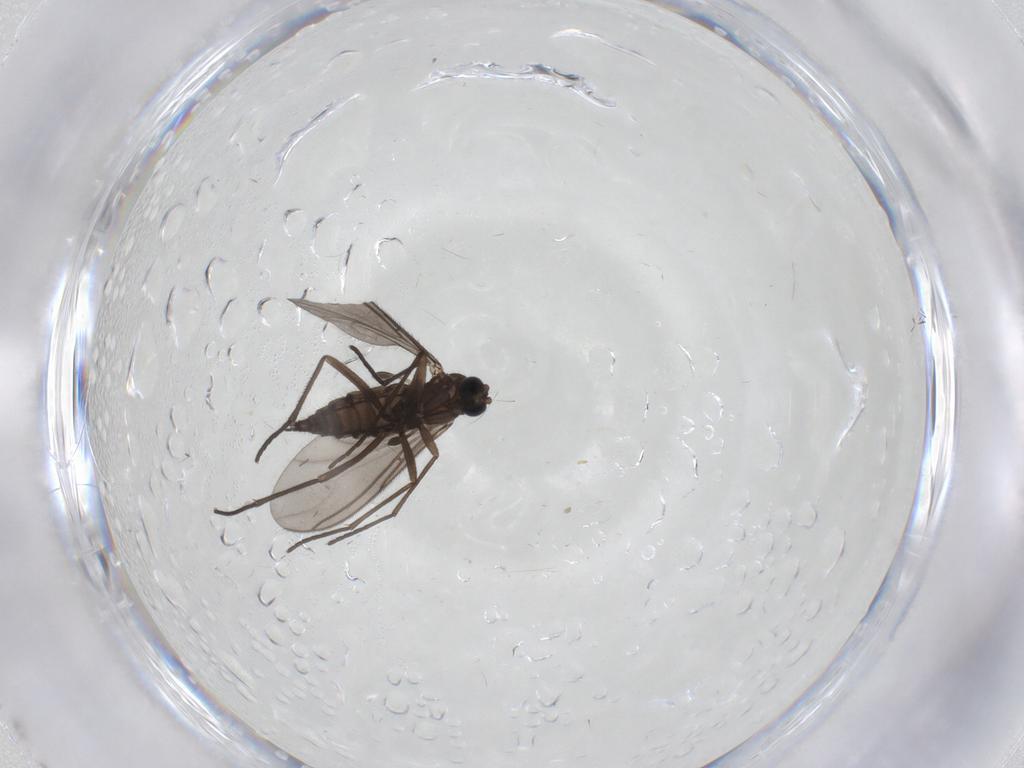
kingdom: Animalia
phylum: Arthropoda
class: Insecta
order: Diptera
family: Sciaridae
